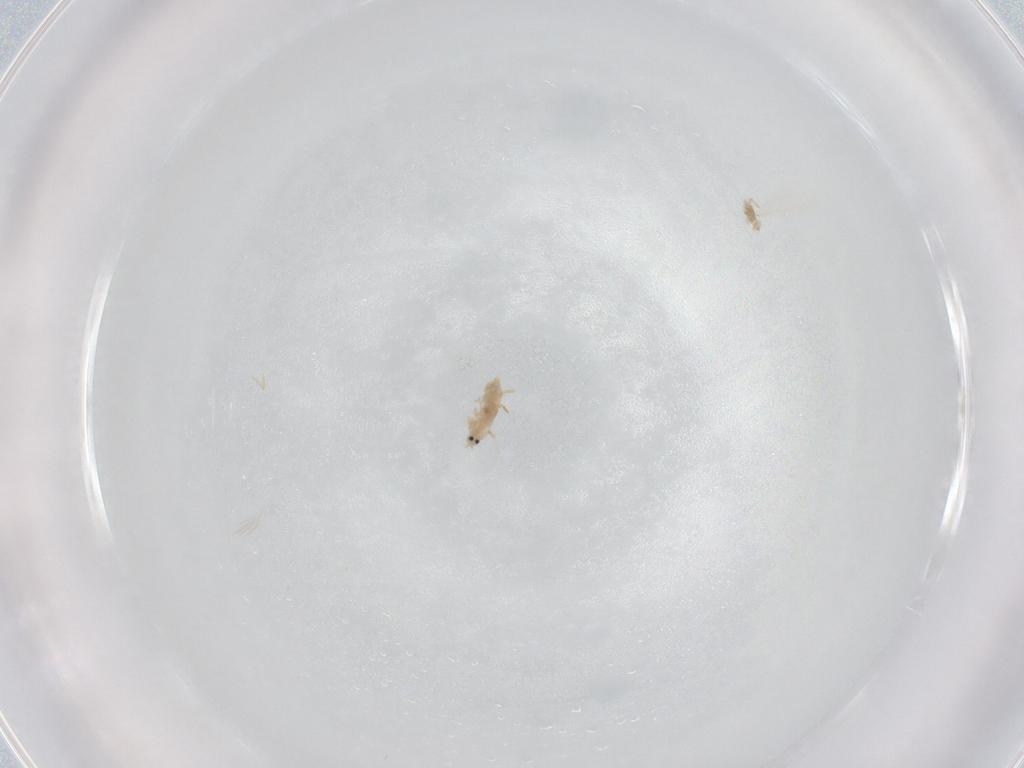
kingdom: Animalia
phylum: Arthropoda
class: Insecta
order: Hemiptera
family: Coccoidea_incertae_sedis
